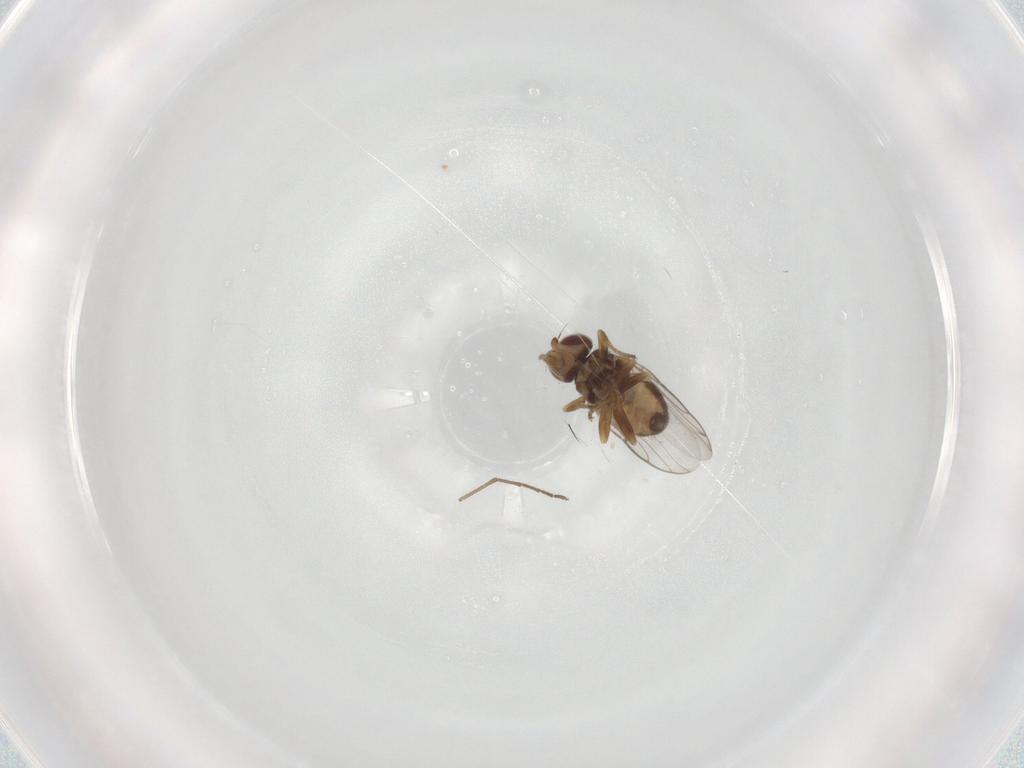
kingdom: Animalia
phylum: Arthropoda
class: Insecta
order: Diptera
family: Chloropidae
